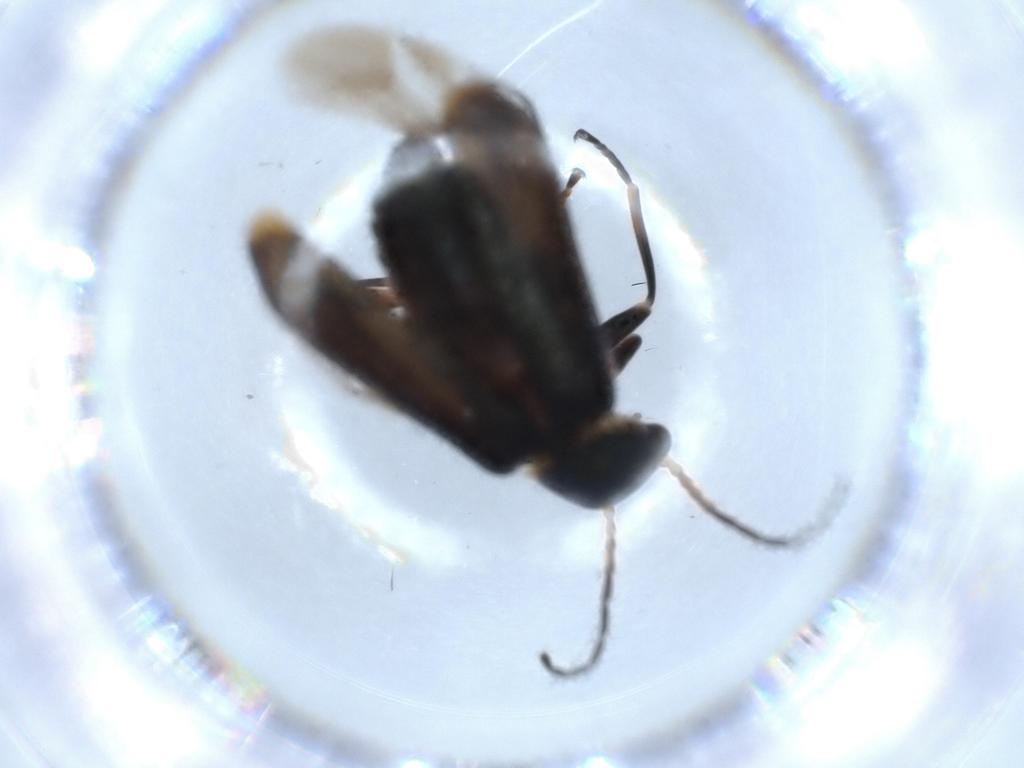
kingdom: Animalia
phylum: Arthropoda
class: Insecta
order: Coleoptera
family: Melyridae
